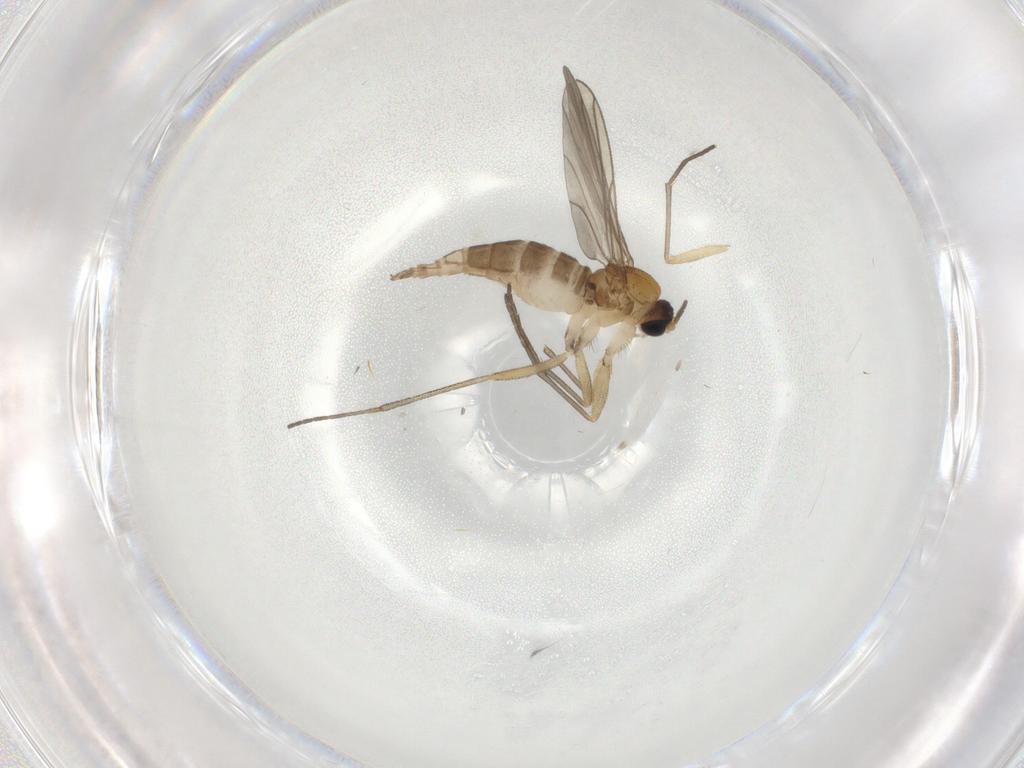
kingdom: Animalia
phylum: Arthropoda
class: Insecta
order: Diptera
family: Sciaridae
